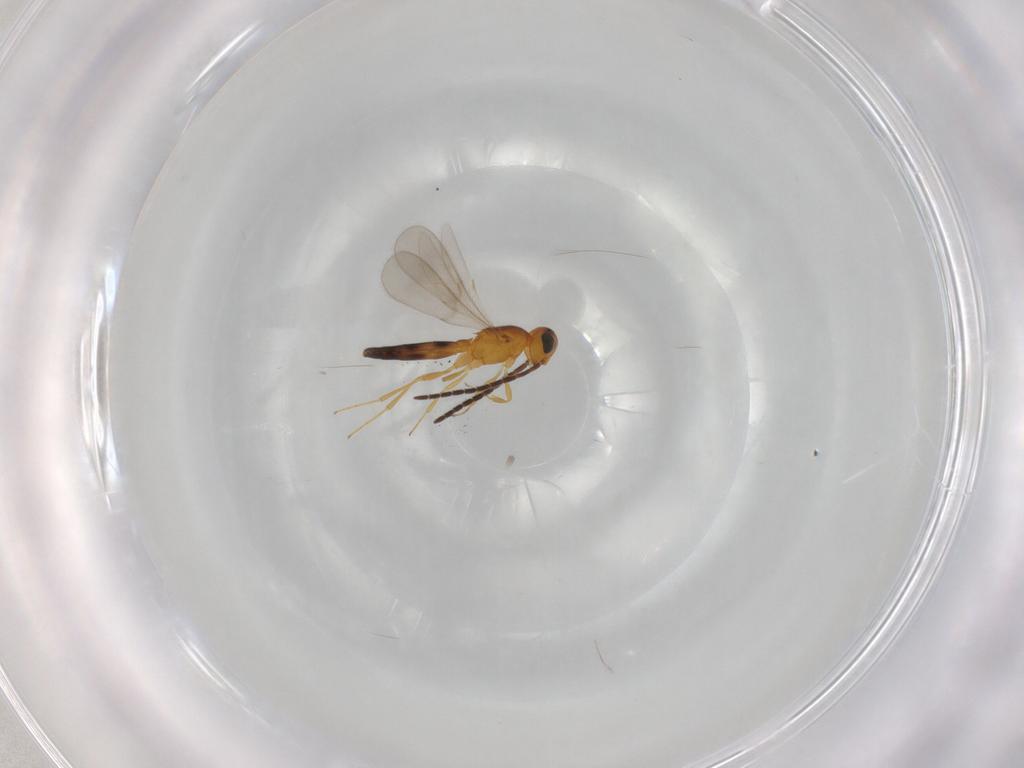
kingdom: Animalia
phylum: Arthropoda
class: Insecta
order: Hymenoptera
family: Scelionidae
